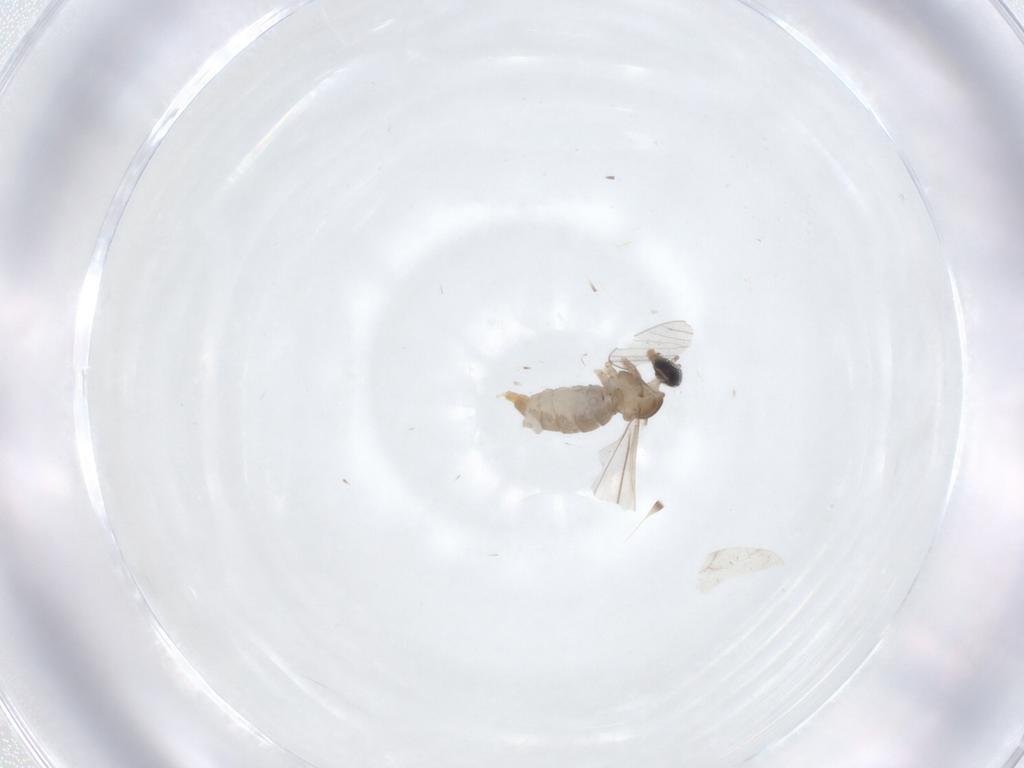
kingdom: Animalia
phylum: Arthropoda
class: Insecta
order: Diptera
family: Cecidomyiidae
